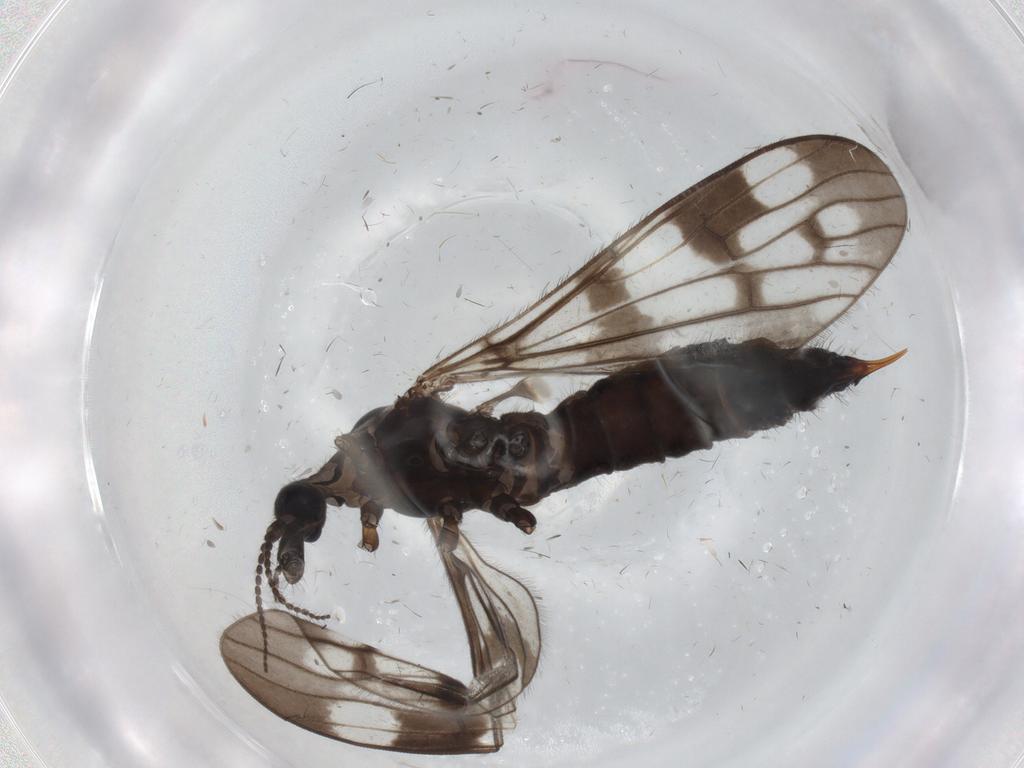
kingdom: Animalia
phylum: Arthropoda
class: Insecta
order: Diptera
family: Limoniidae
